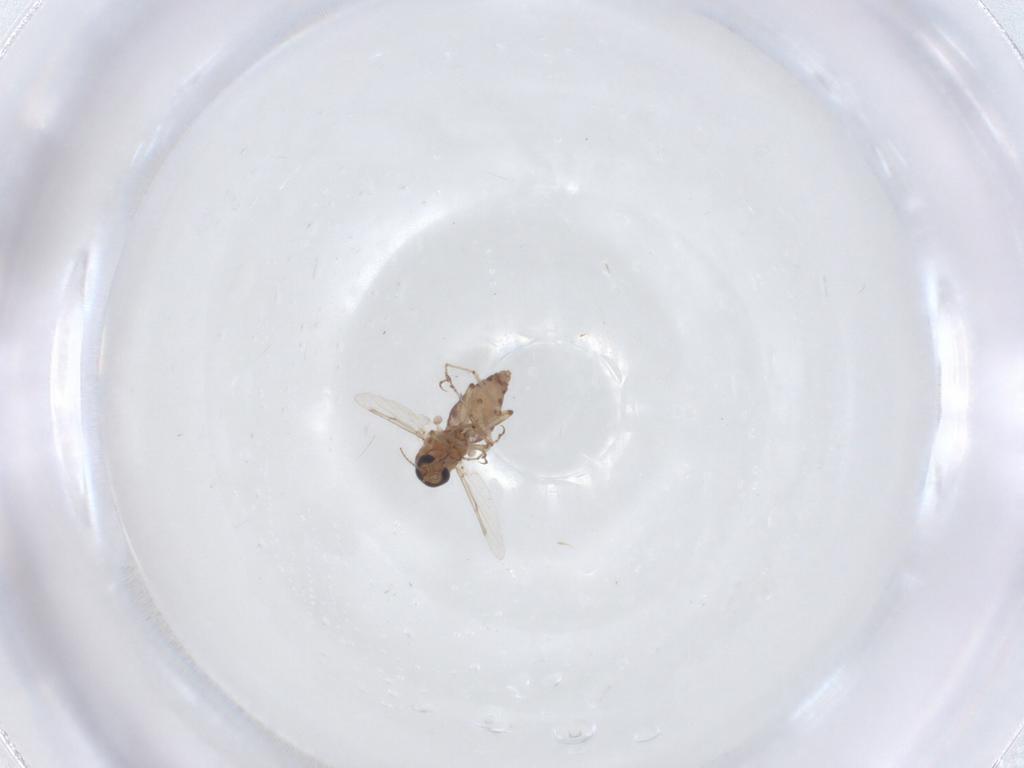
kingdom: Animalia
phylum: Arthropoda
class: Insecta
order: Diptera
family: Ceratopogonidae
